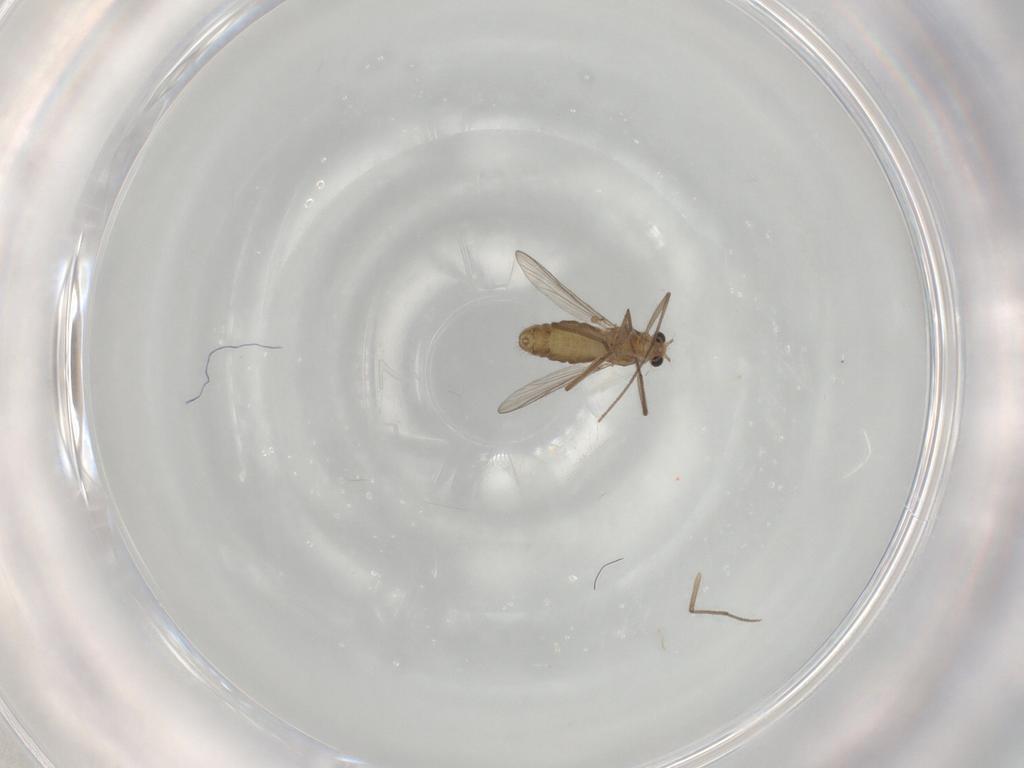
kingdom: Animalia
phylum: Arthropoda
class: Insecta
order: Diptera
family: Chironomidae
